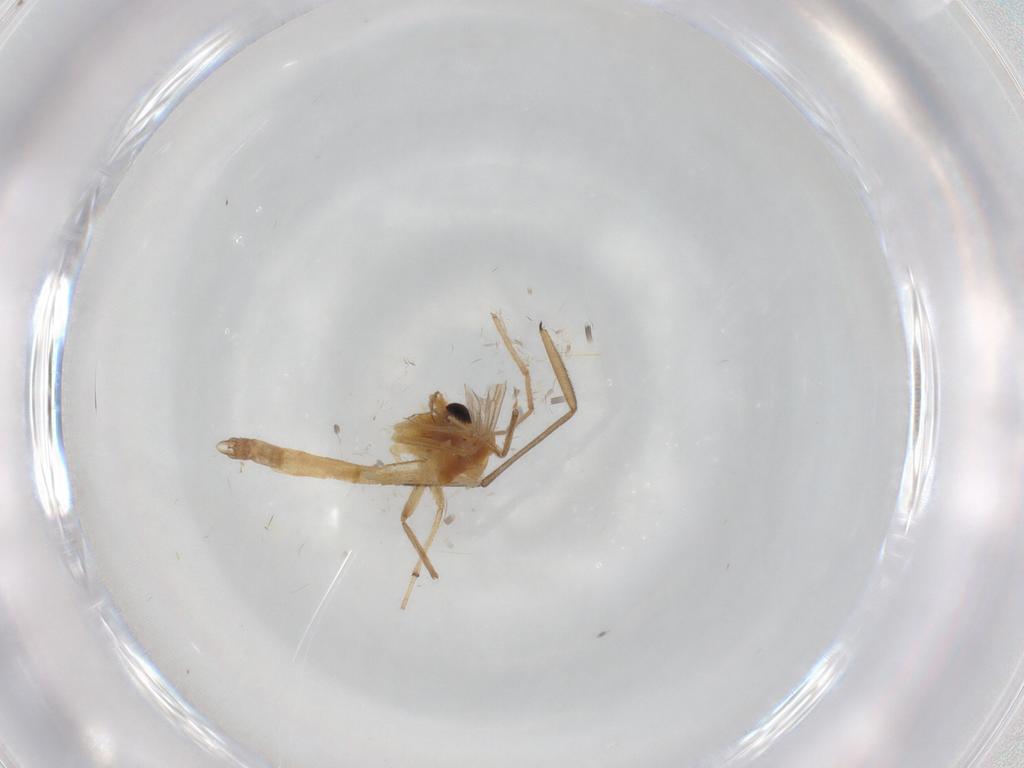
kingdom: Animalia
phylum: Arthropoda
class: Insecta
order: Diptera
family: Chironomidae
